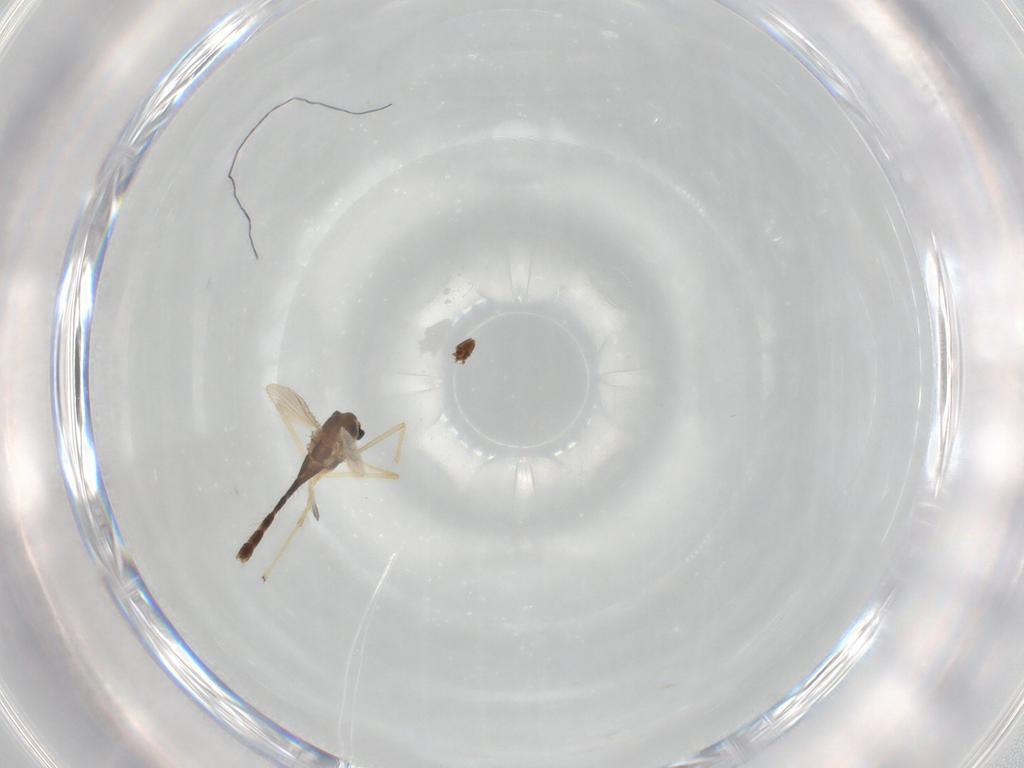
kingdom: Animalia
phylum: Arthropoda
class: Insecta
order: Diptera
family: Chironomidae
